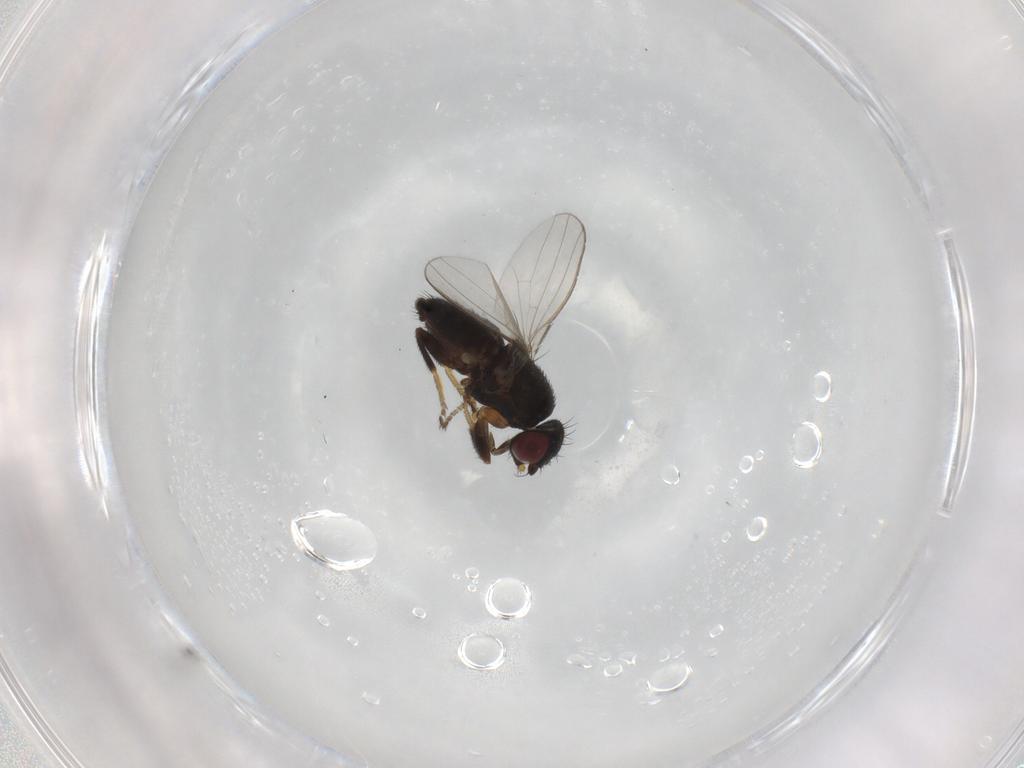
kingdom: Animalia
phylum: Arthropoda
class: Insecta
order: Diptera
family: Milichiidae
